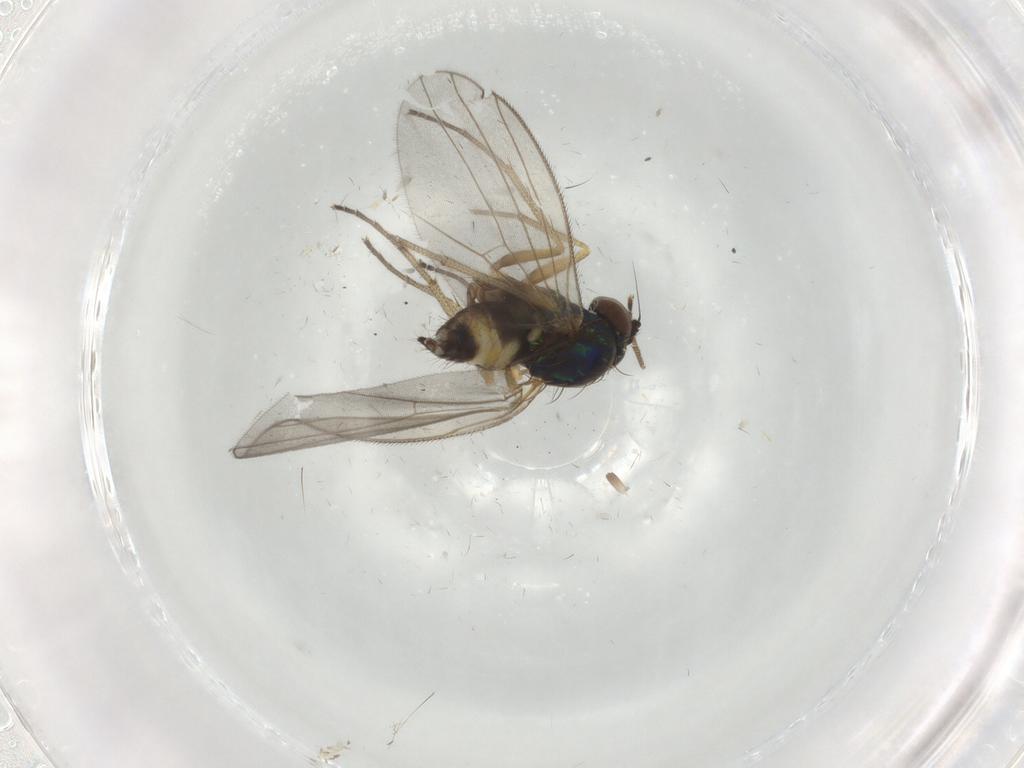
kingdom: Animalia
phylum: Arthropoda
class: Insecta
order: Diptera
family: Dolichopodidae
